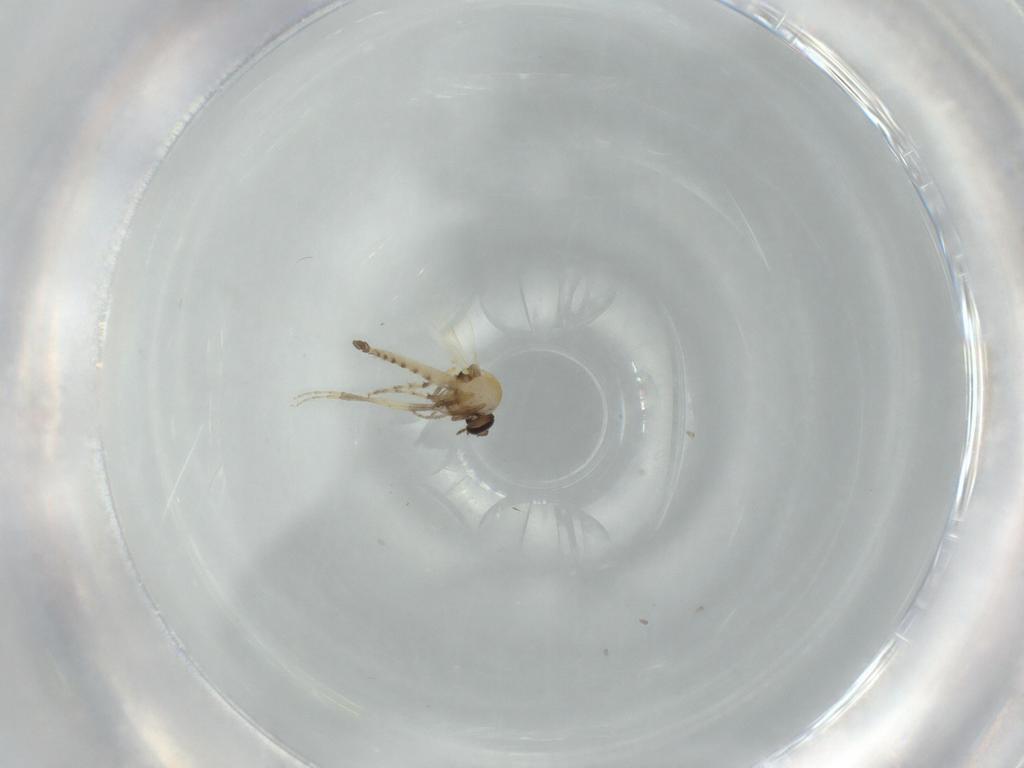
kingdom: Animalia
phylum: Arthropoda
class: Insecta
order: Diptera
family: Ceratopogonidae
